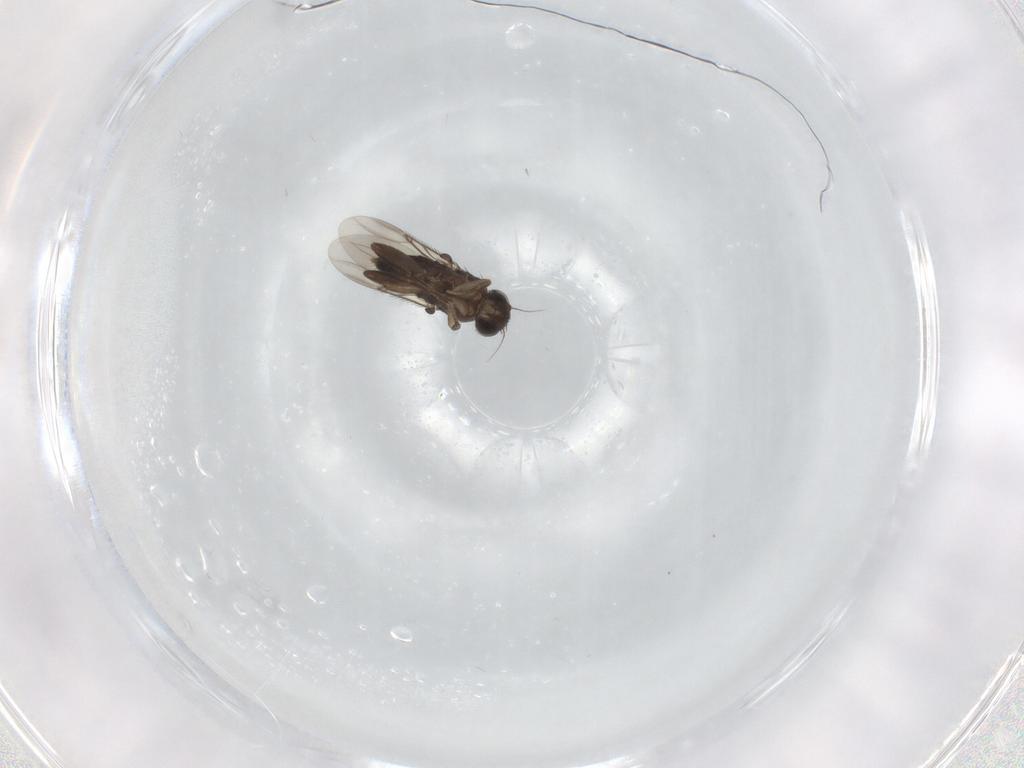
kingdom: Animalia
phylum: Arthropoda
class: Insecta
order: Diptera
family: Phoridae
